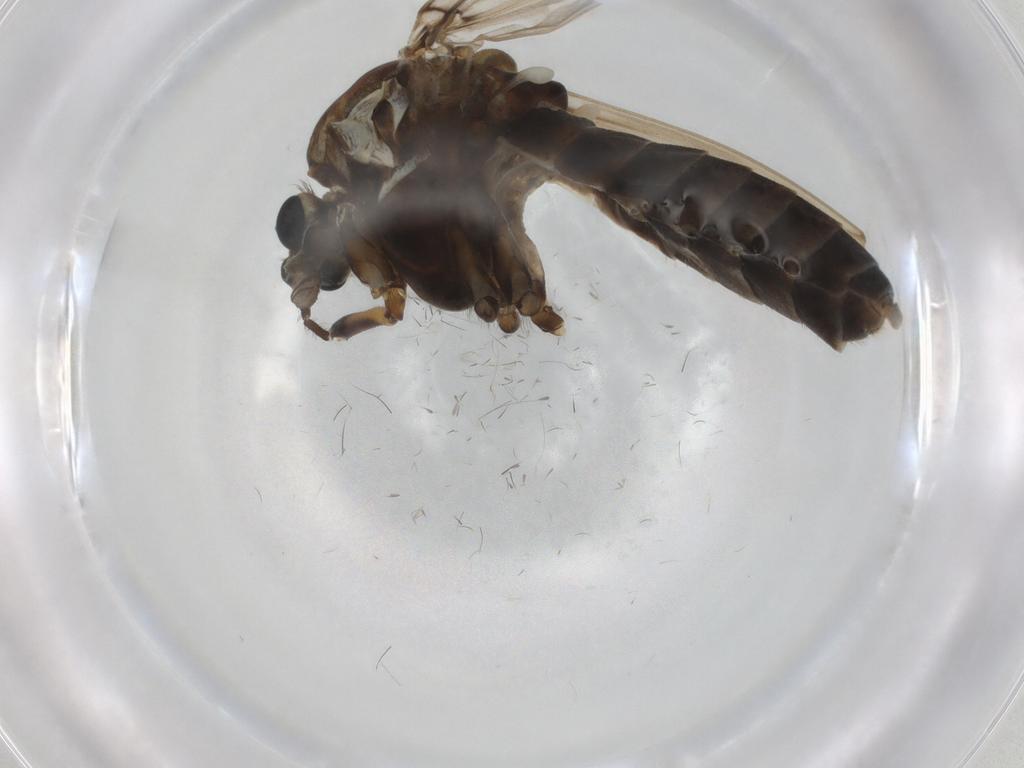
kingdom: Animalia
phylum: Arthropoda
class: Insecta
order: Diptera
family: Chironomidae
